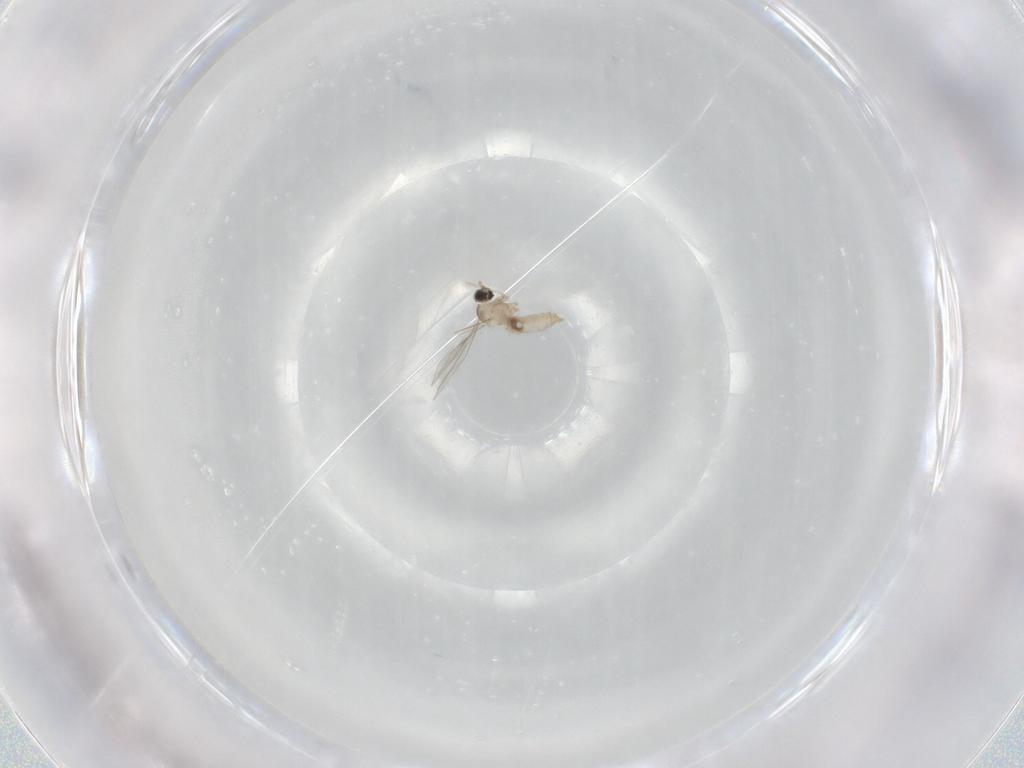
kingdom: Animalia
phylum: Arthropoda
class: Insecta
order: Diptera
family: Cecidomyiidae
